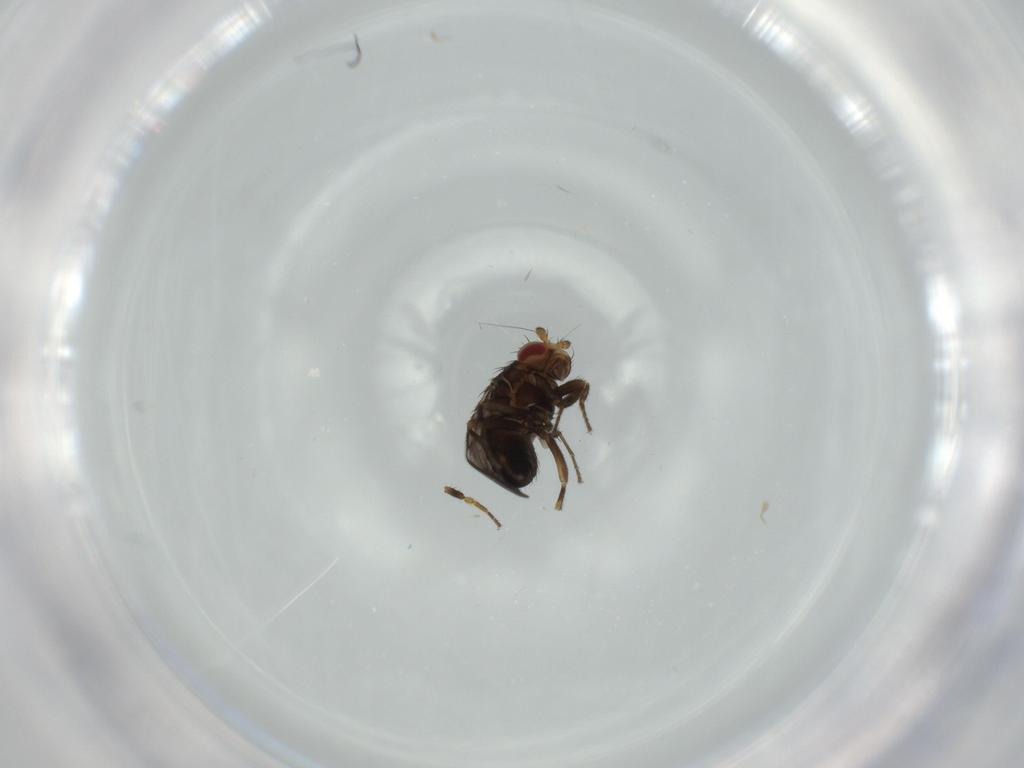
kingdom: Animalia
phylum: Arthropoda
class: Insecta
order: Diptera
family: Sphaeroceridae
